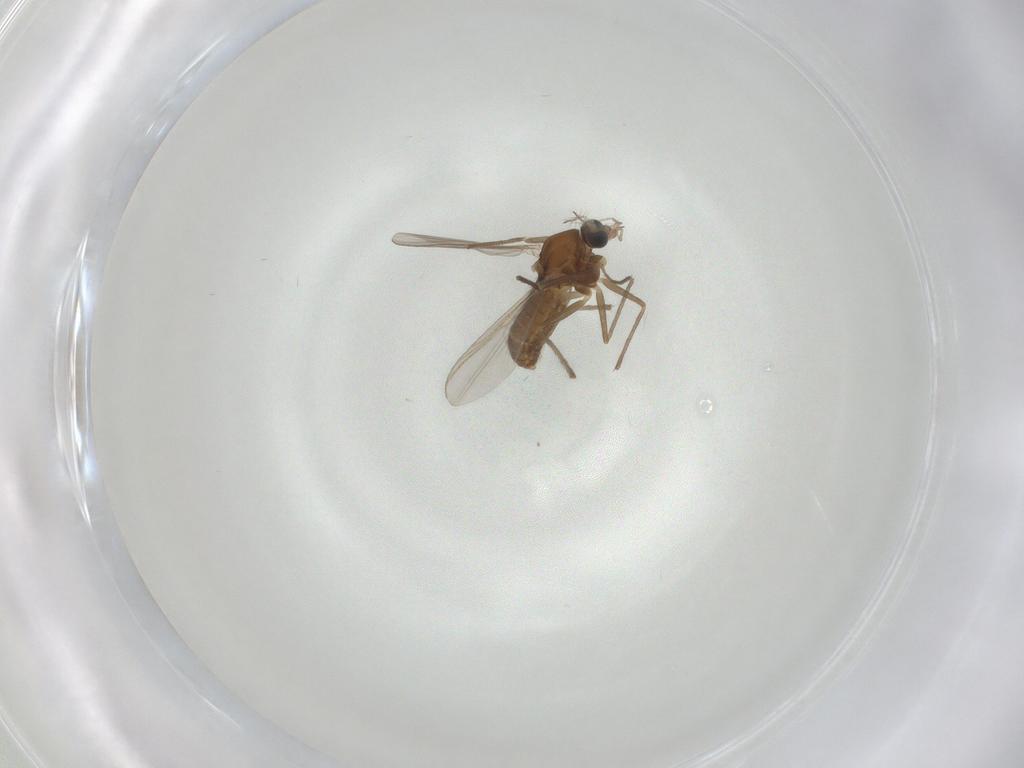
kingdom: Animalia
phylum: Arthropoda
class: Insecta
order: Diptera
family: Chironomidae
